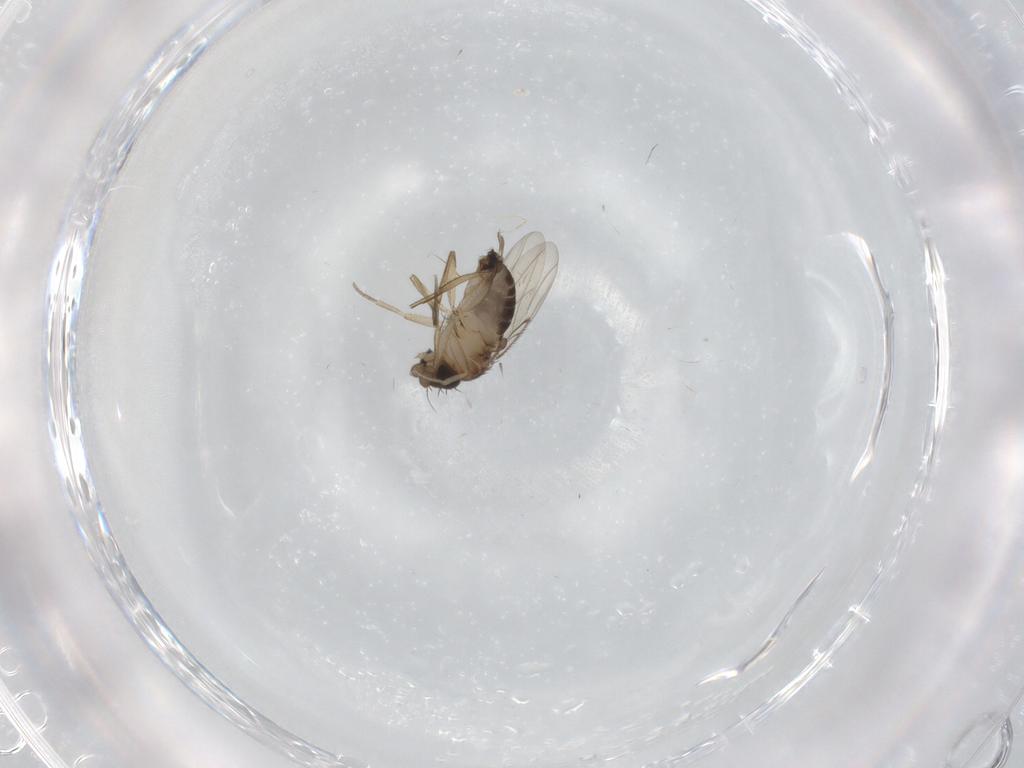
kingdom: Animalia
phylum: Arthropoda
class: Insecta
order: Diptera
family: Phoridae
